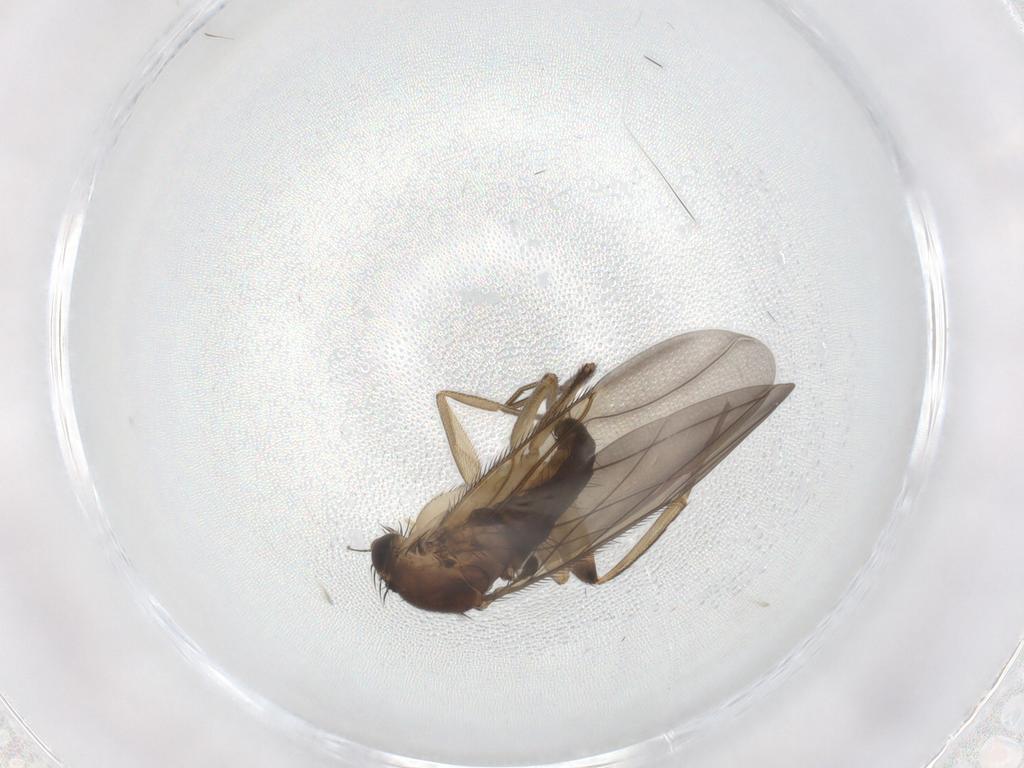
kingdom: Animalia
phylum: Arthropoda
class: Insecta
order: Diptera
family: Phoridae
